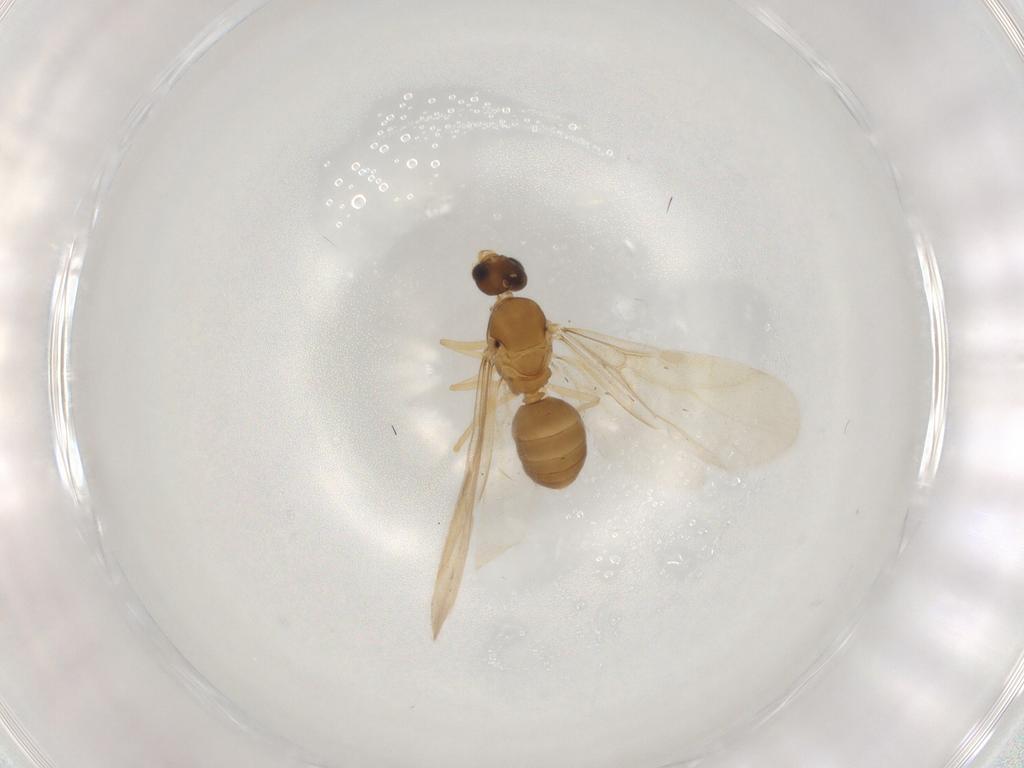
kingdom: Animalia
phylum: Arthropoda
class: Insecta
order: Hymenoptera
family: Formicidae
